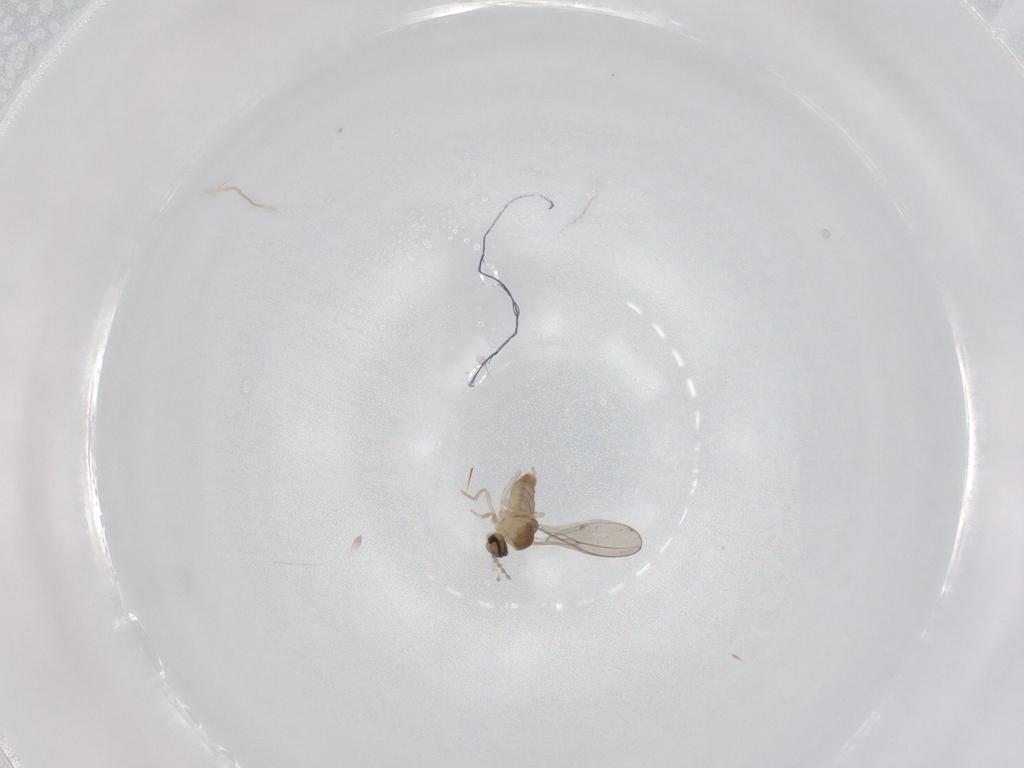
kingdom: Animalia
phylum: Arthropoda
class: Insecta
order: Diptera
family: Cecidomyiidae
